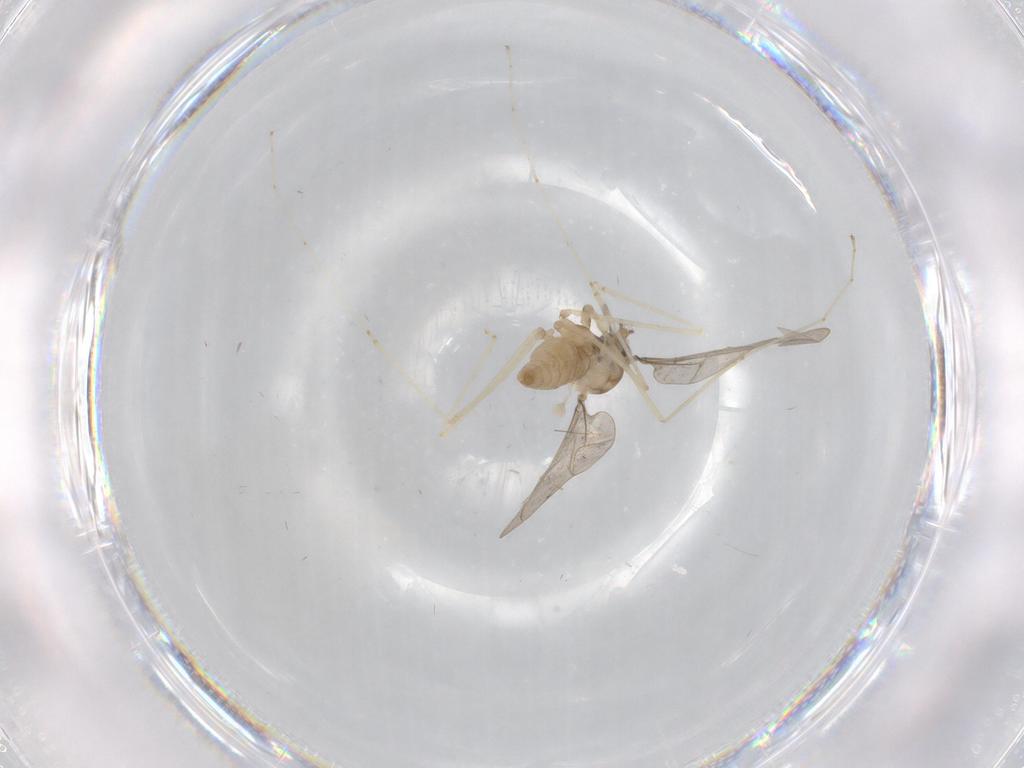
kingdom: Animalia
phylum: Arthropoda
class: Insecta
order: Diptera
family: Cecidomyiidae
